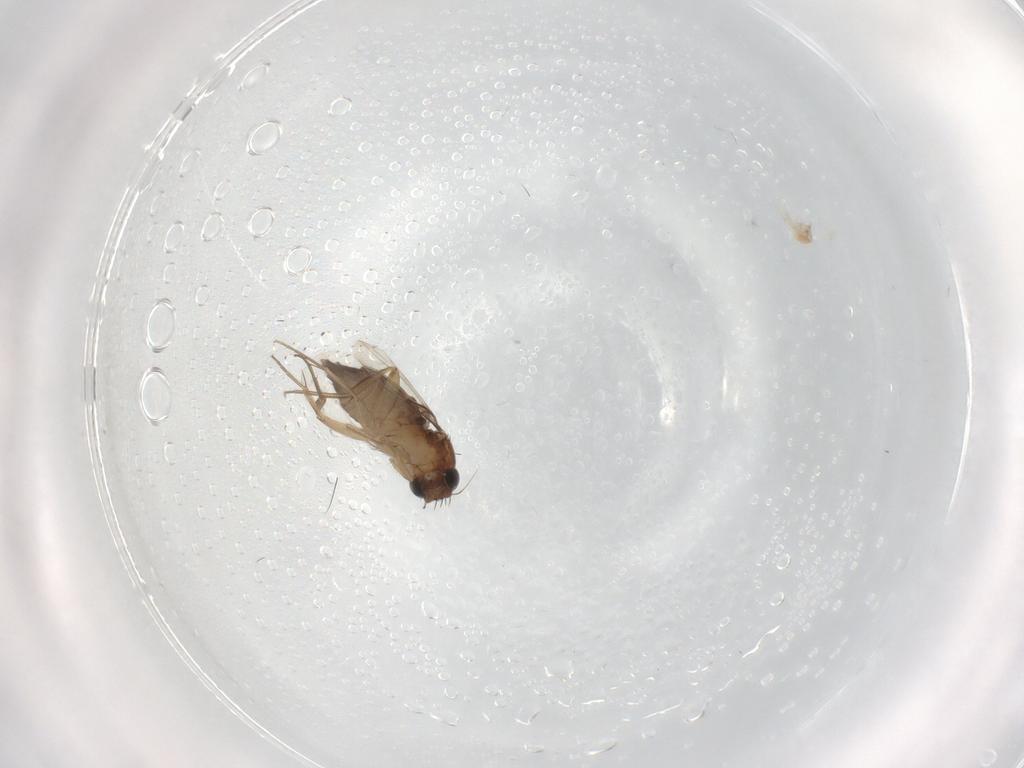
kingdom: Animalia
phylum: Arthropoda
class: Insecta
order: Diptera
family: Phoridae
